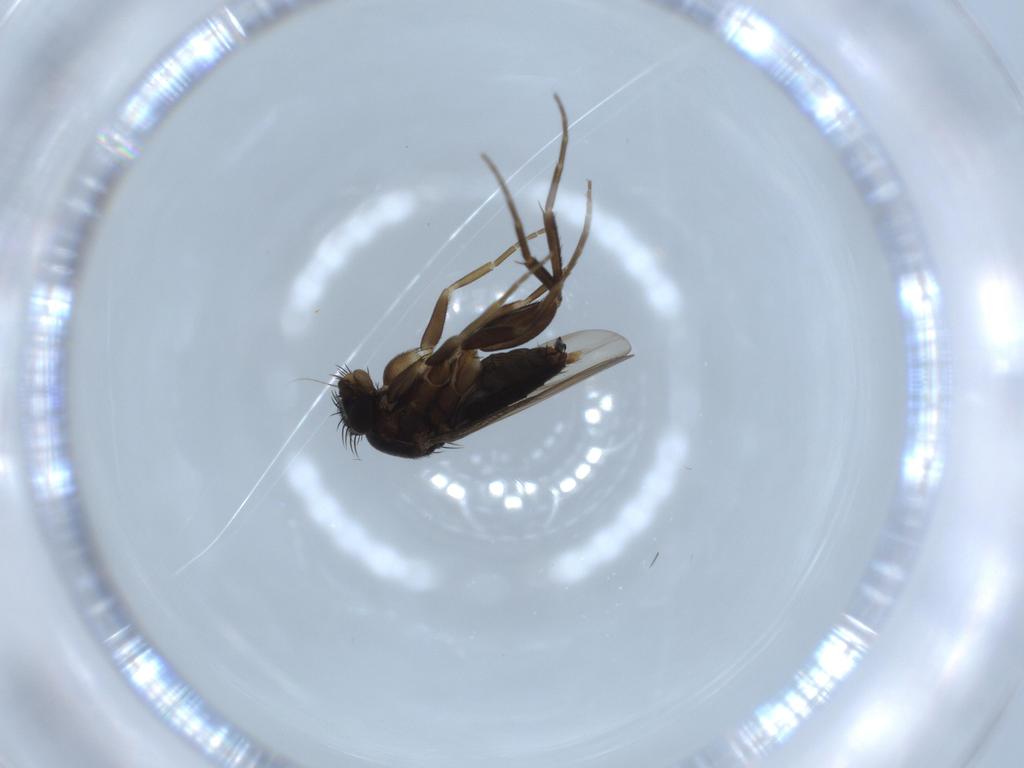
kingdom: Animalia
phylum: Arthropoda
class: Insecta
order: Diptera
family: Phoridae
